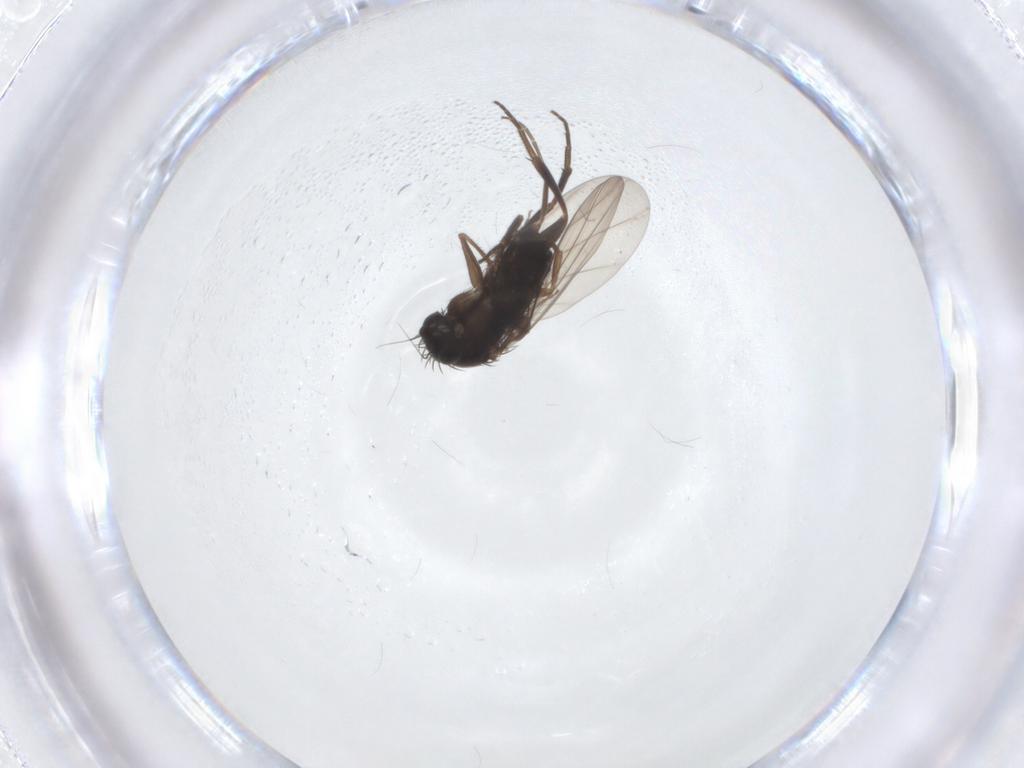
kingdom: Animalia
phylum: Arthropoda
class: Insecta
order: Diptera
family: Phoridae
